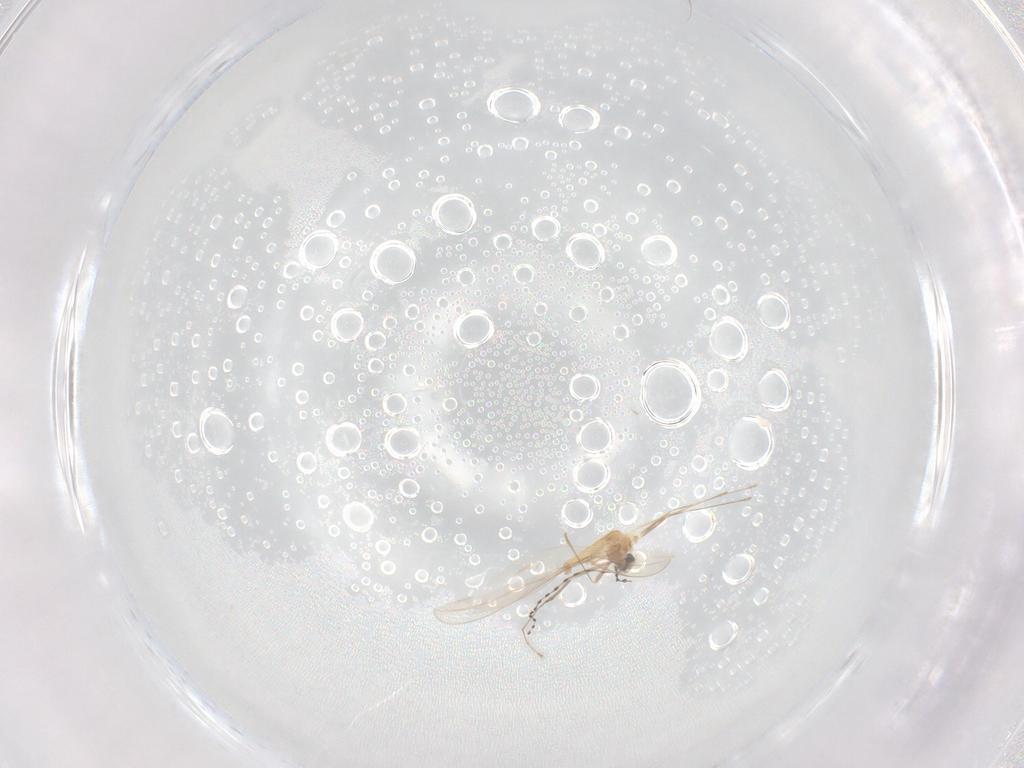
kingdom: Animalia
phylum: Arthropoda
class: Insecta
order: Diptera
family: Cecidomyiidae
